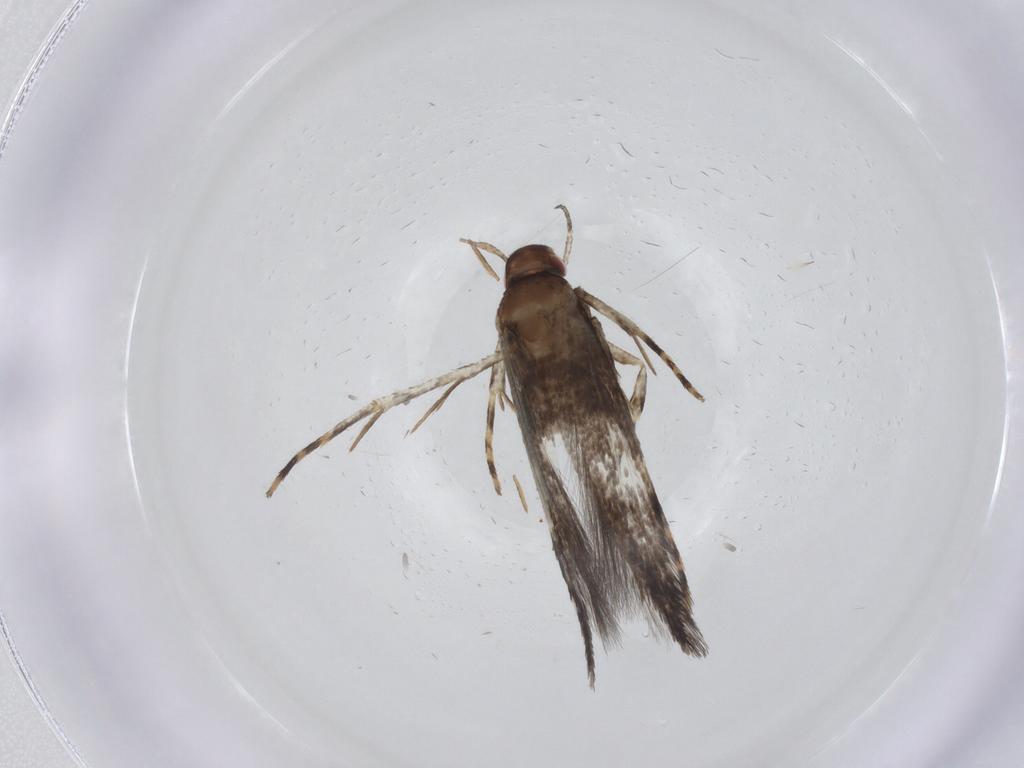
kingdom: Animalia
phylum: Arthropoda
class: Insecta
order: Lepidoptera
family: Cosmopterigidae
